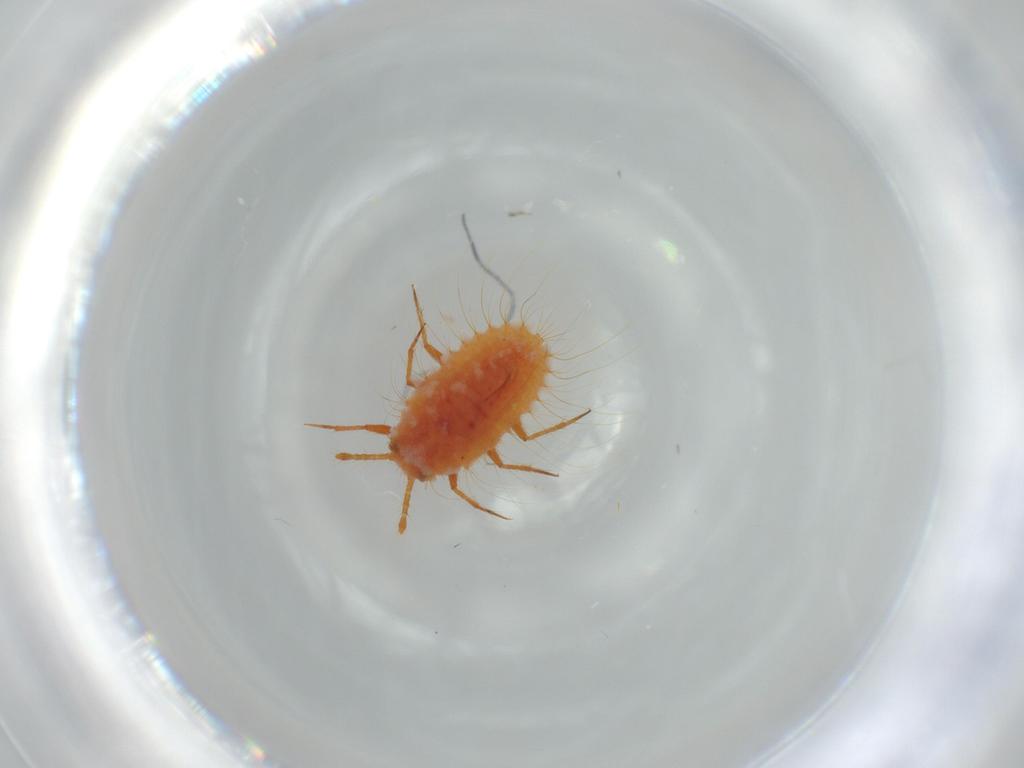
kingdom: Animalia
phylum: Arthropoda
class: Insecta
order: Hemiptera
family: Coccoidea_incertae_sedis
